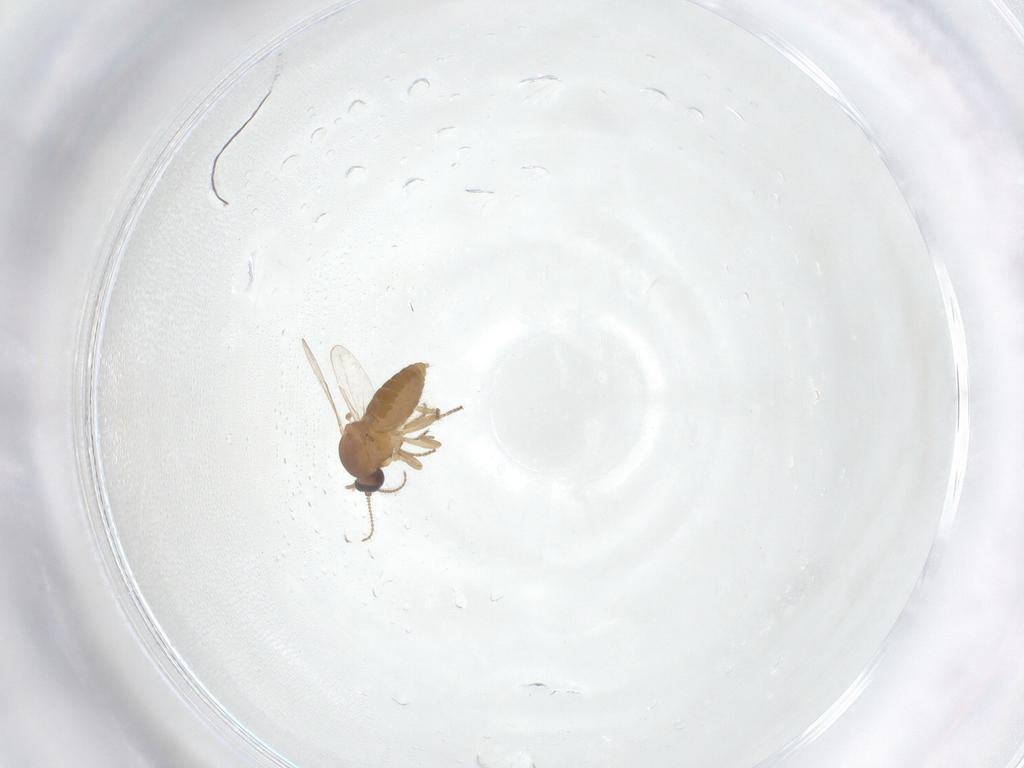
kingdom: Animalia
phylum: Arthropoda
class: Insecta
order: Diptera
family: Ceratopogonidae
